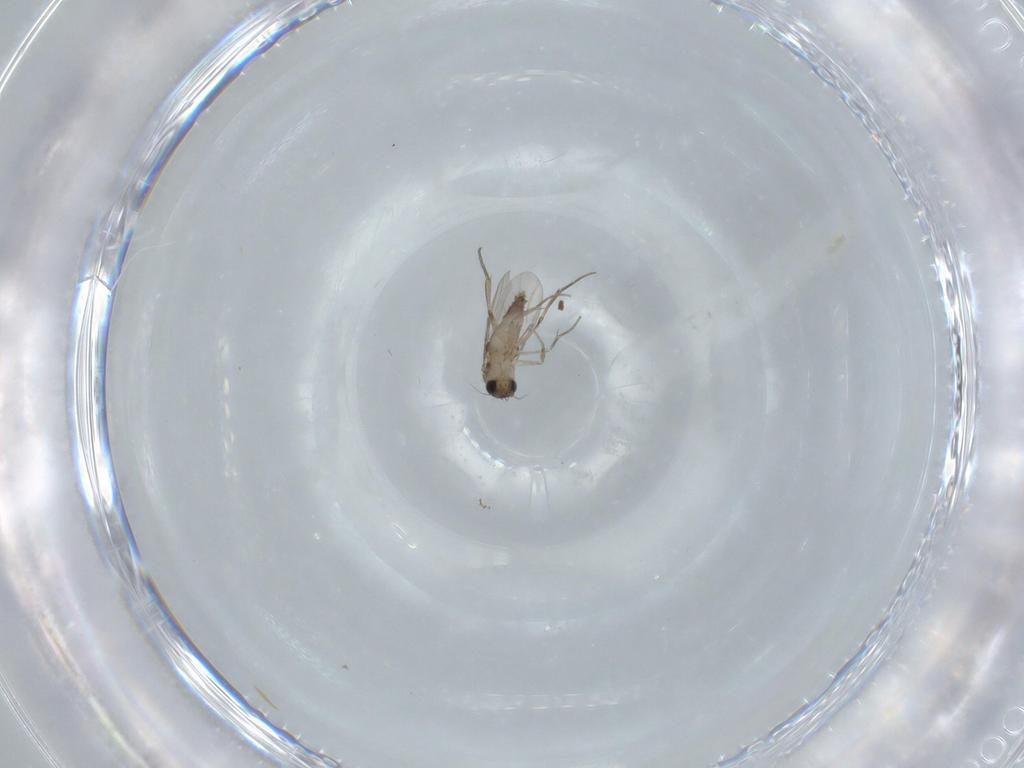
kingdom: Animalia
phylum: Arthropoda
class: Insecta
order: Diptera
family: Phoridae
